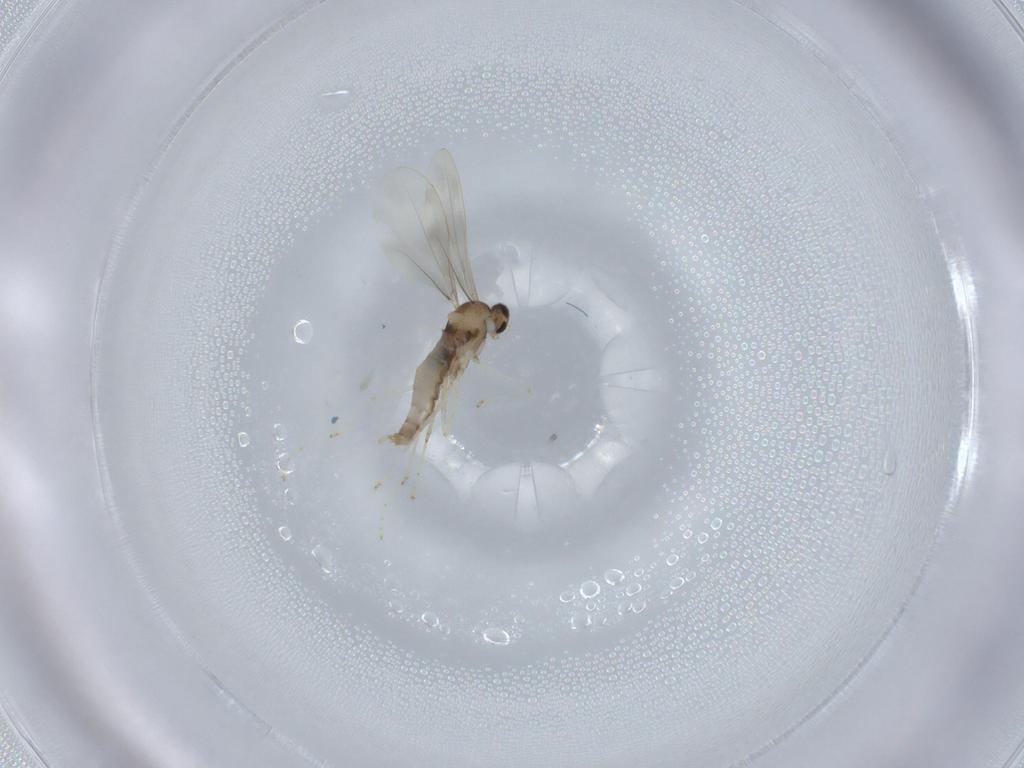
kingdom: Animalia
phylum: Arthropoda
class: Insecta
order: Diptera
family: Cecidomyiidae
